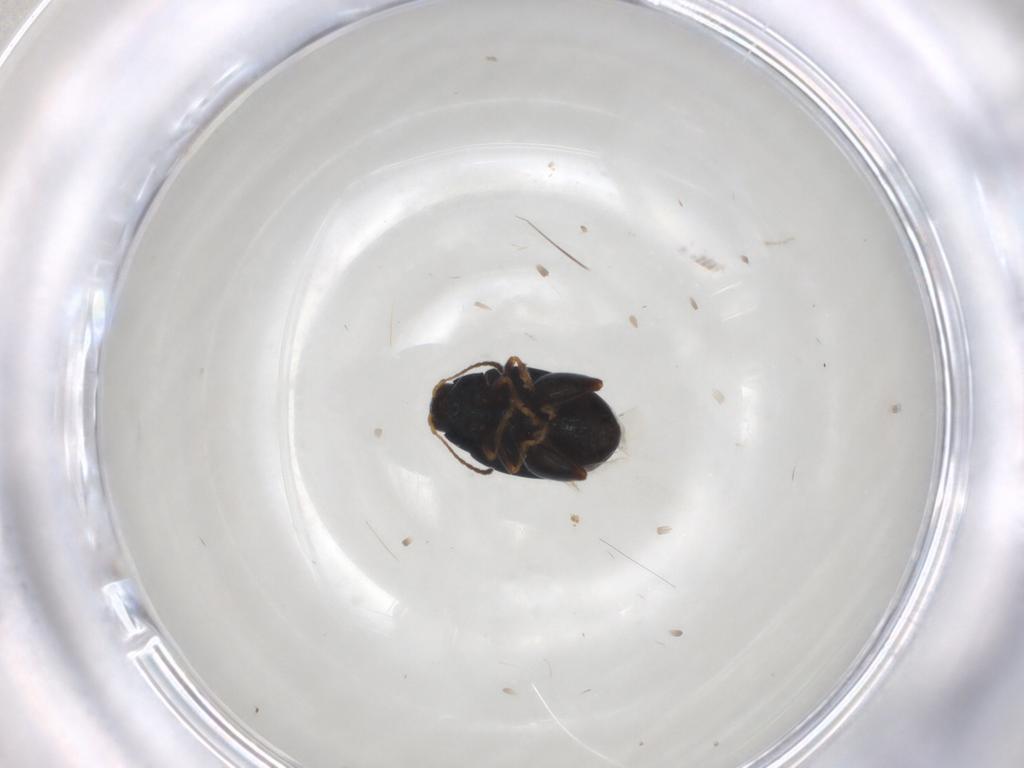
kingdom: Animalia
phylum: Arthropoda
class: Insecta
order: Coleoptera
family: Chrysomelidae
